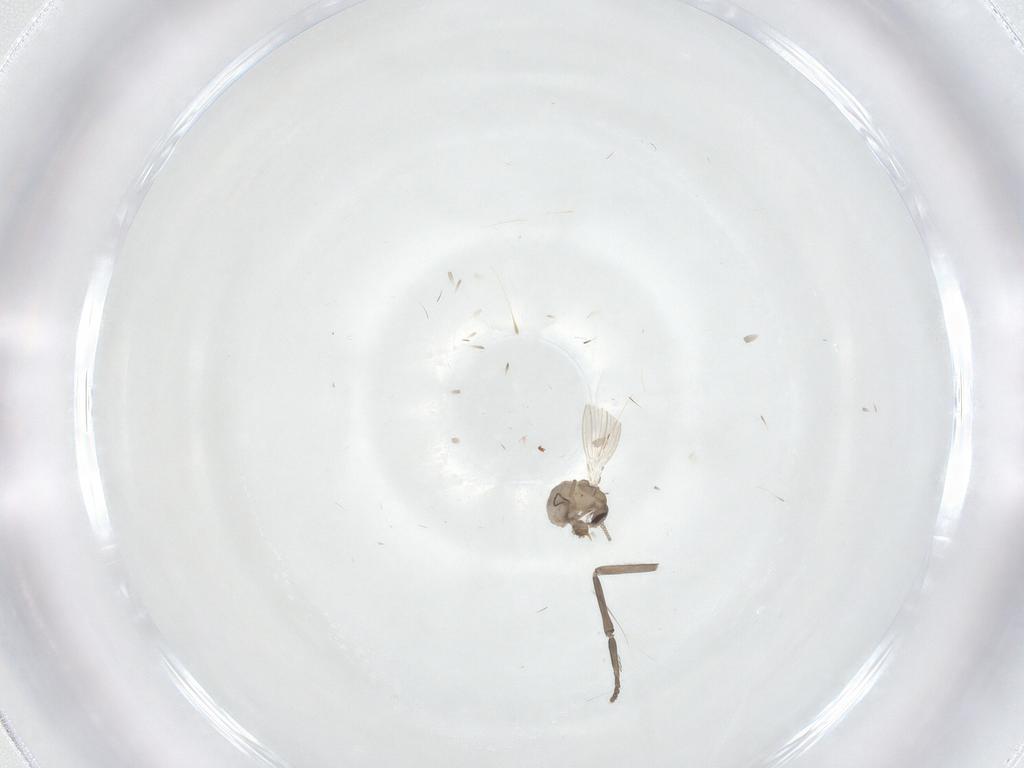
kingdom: Animalia
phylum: Arthropoda
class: Insecta
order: Diptera
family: Psychodidae
